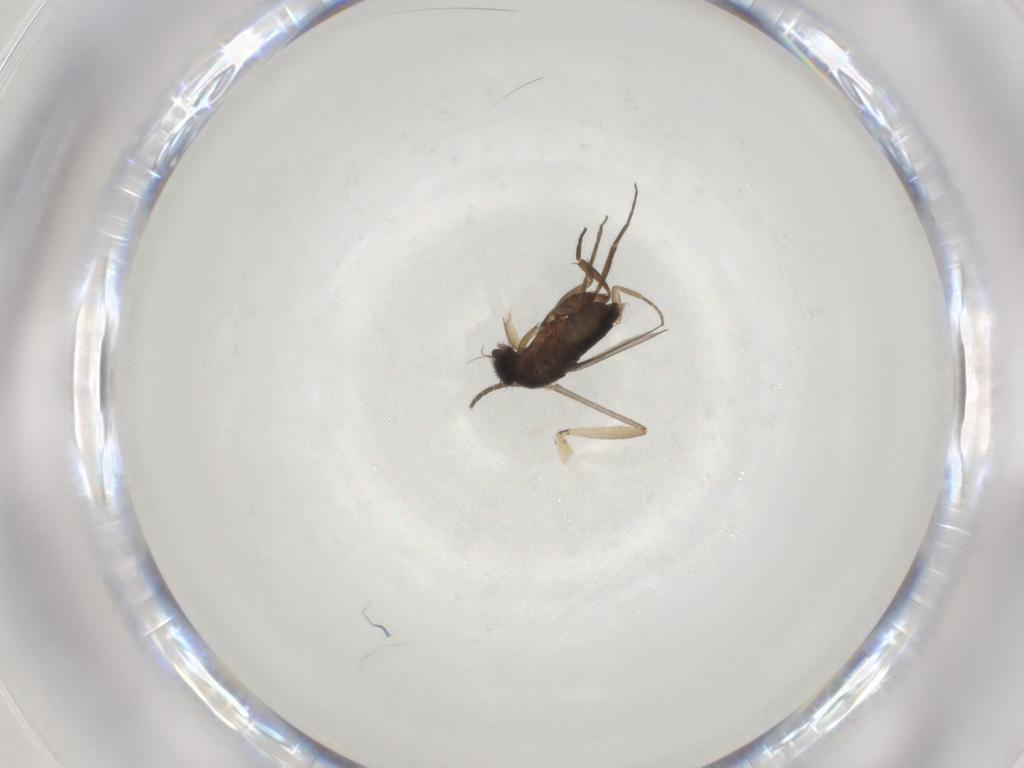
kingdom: Animalia
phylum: Arthropoda
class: Insecta
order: Diptera
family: Phoridae
